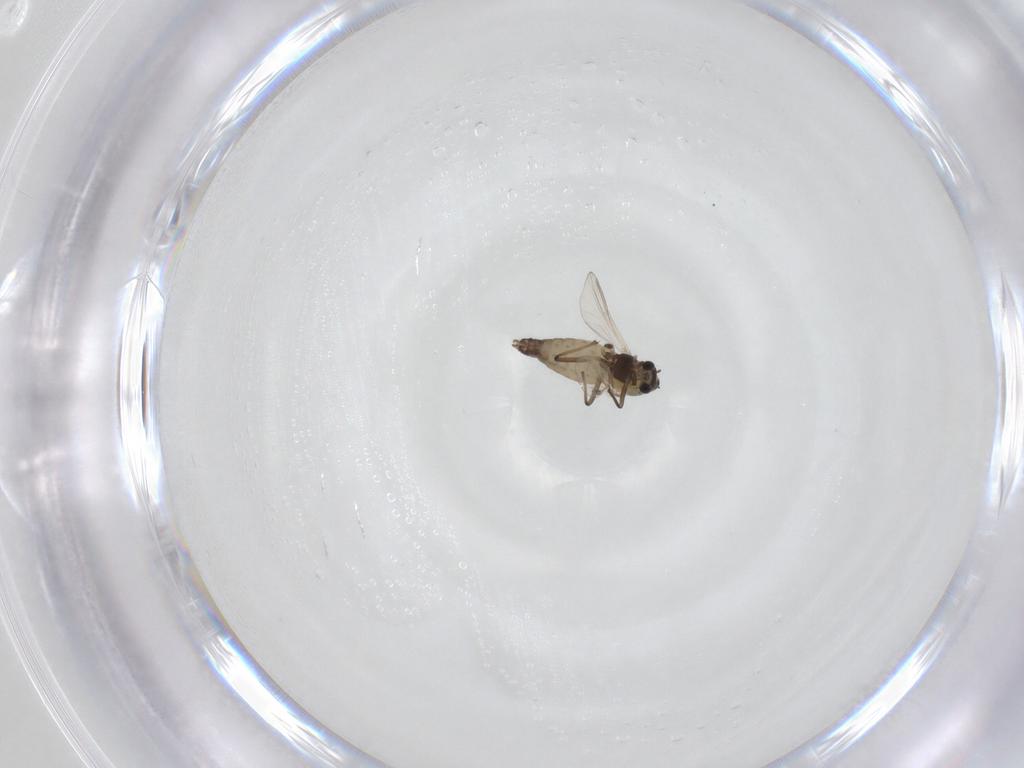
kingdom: Animalia
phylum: Arthropoda
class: Insecta
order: Diptera
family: Chironomidae
